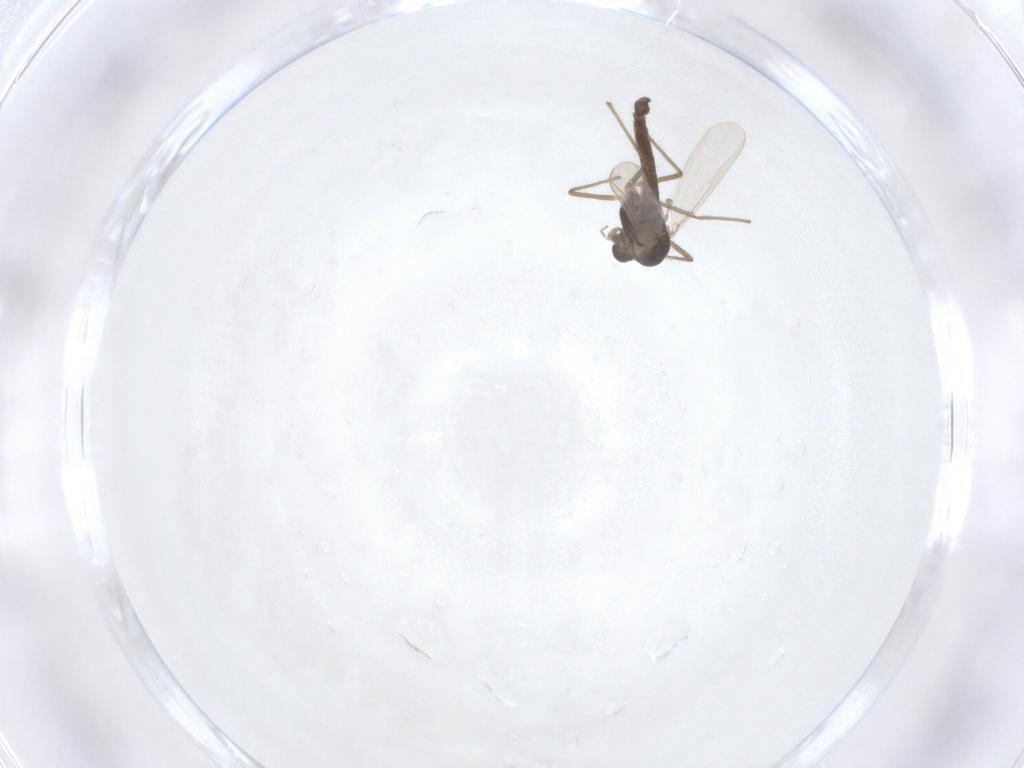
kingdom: Animalia
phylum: Arthropoda
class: Insecta
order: Diptera
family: Chironomidae
